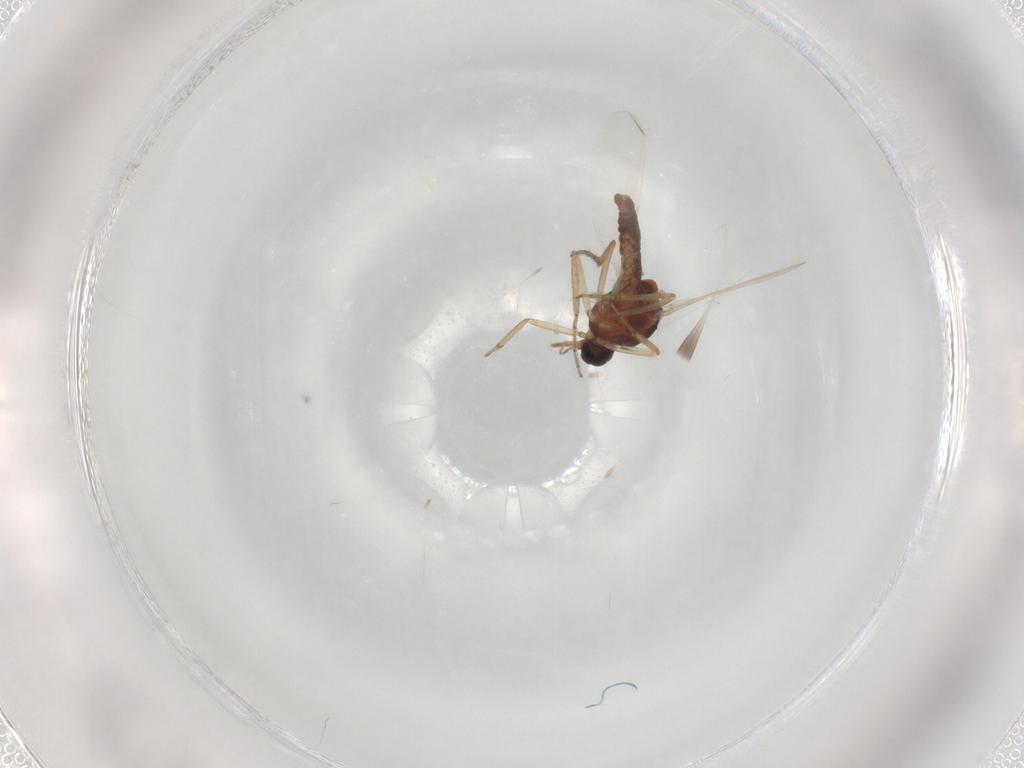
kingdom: Animalia
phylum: Arthropoda
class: Insecta
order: Diptera
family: Ceratopogonidae
